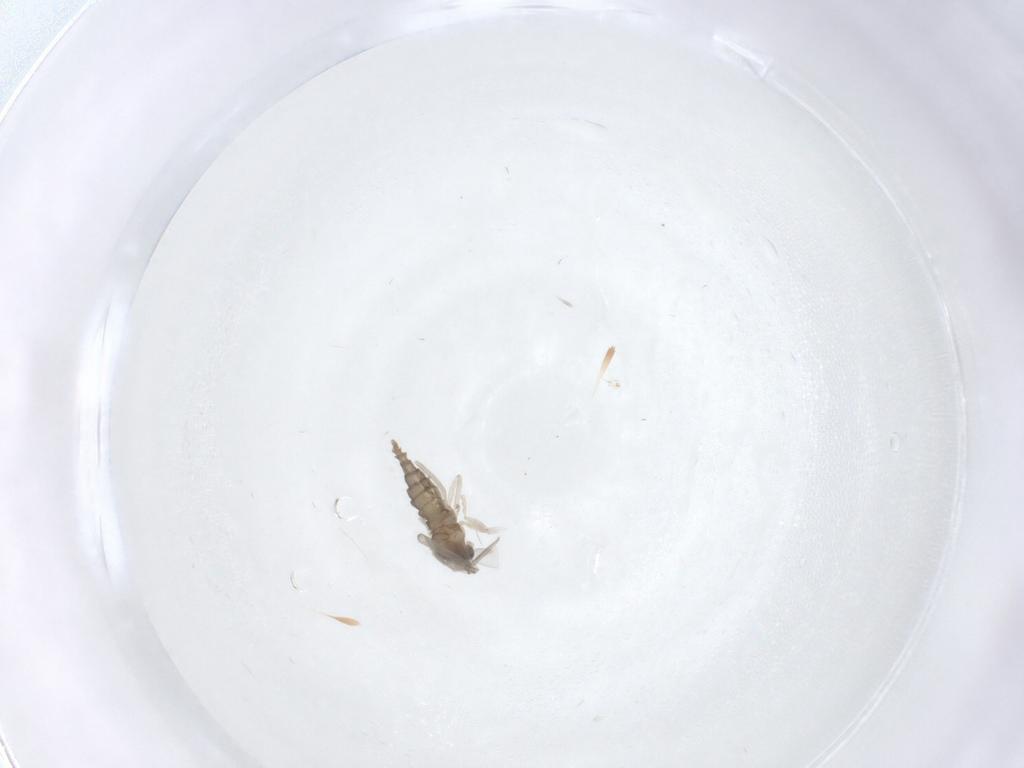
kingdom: Animalia
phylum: Arthropoda
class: Insecta
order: Diptera
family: Cecidomyiidae
